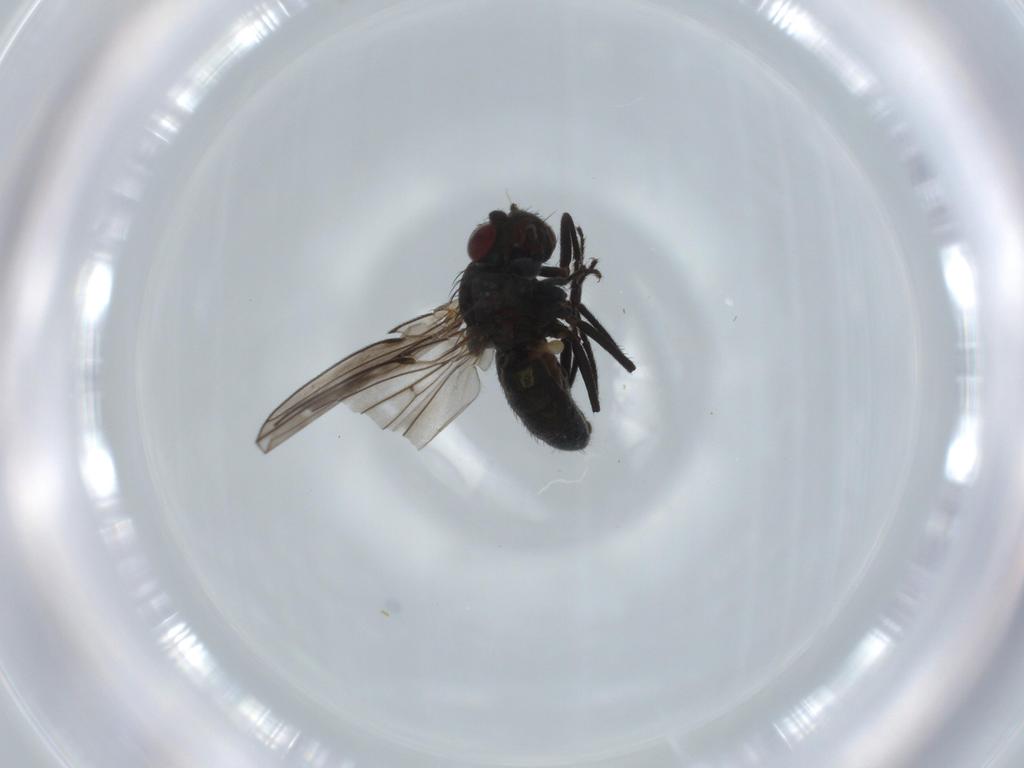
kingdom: Animalia
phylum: Arthropoda
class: Insecta
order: Diptera
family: Ephydridae
